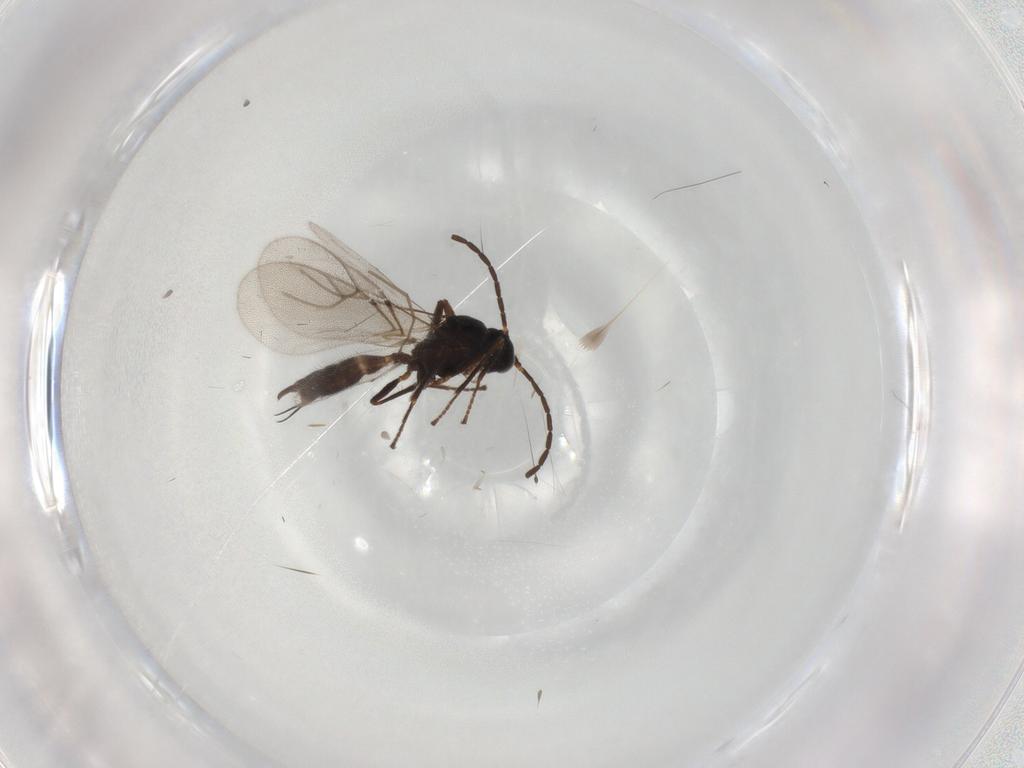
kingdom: Animalia
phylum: Arthropoda
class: Insecta
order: Hymenoptera
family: Braconidae
